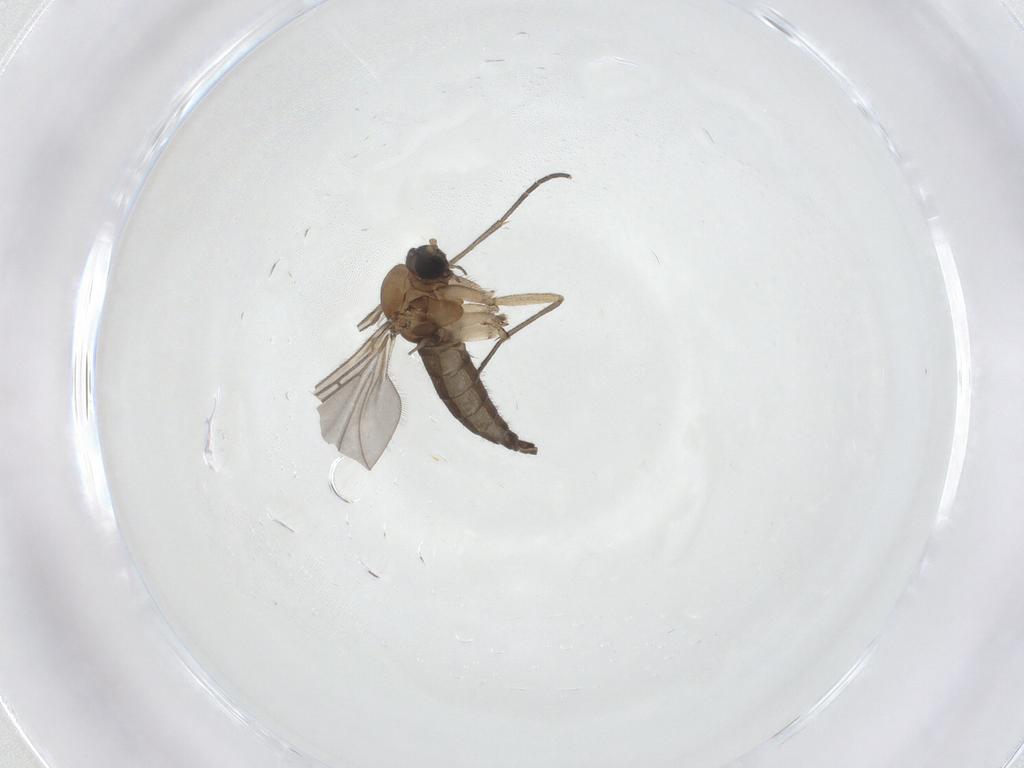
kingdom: Animalia
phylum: Arthropoda
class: Insecta
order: Diptera
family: Sciaridae
